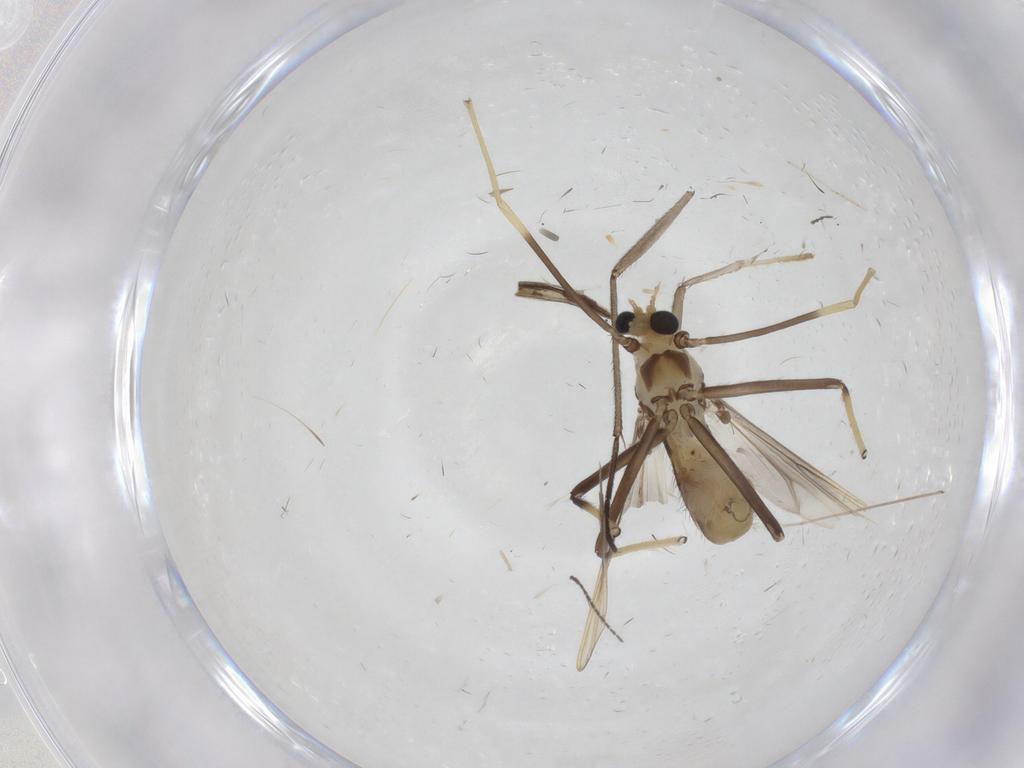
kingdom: Animalia
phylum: Arthropoda
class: Insecta
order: Diptera
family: Chironomidae
